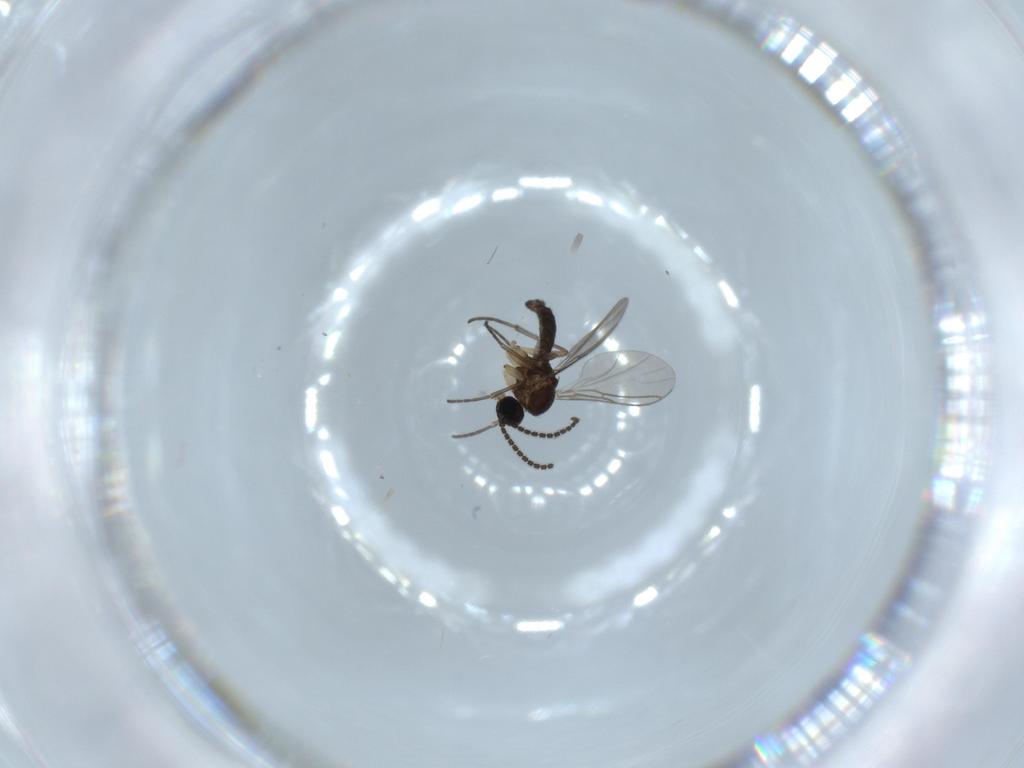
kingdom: Animalia
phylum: Arthropoda
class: Insecta
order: Diptera
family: Sciaridae
